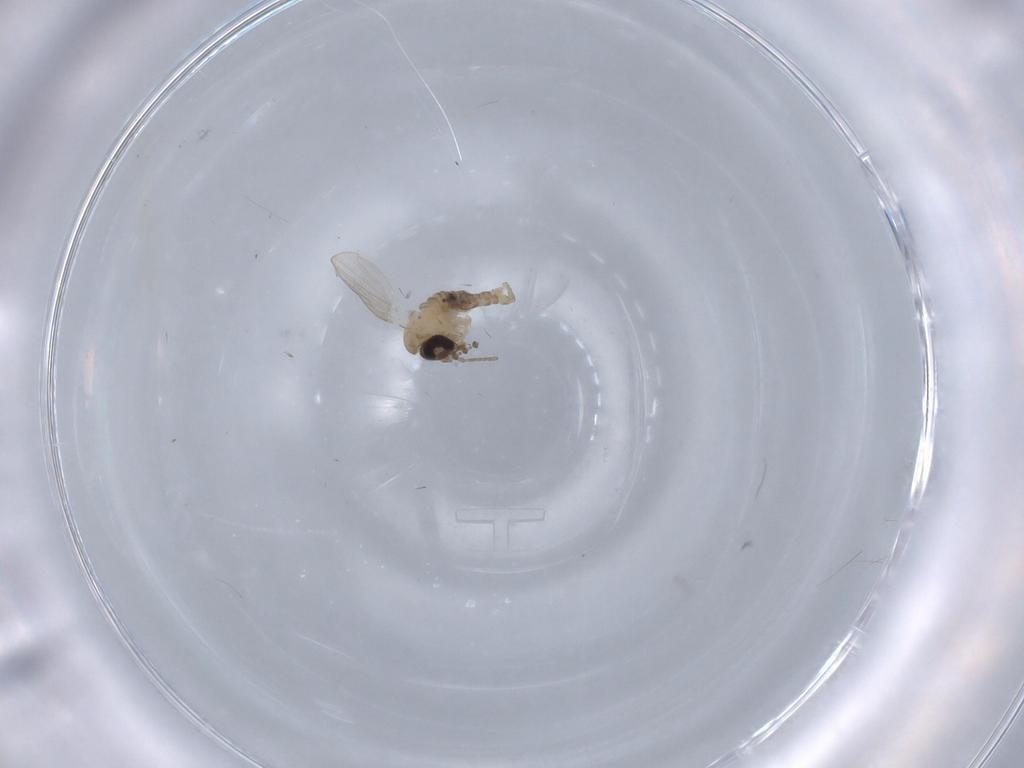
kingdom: Animalia
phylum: Arthropoda
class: Insecta
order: Diptera
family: Psychodidae
